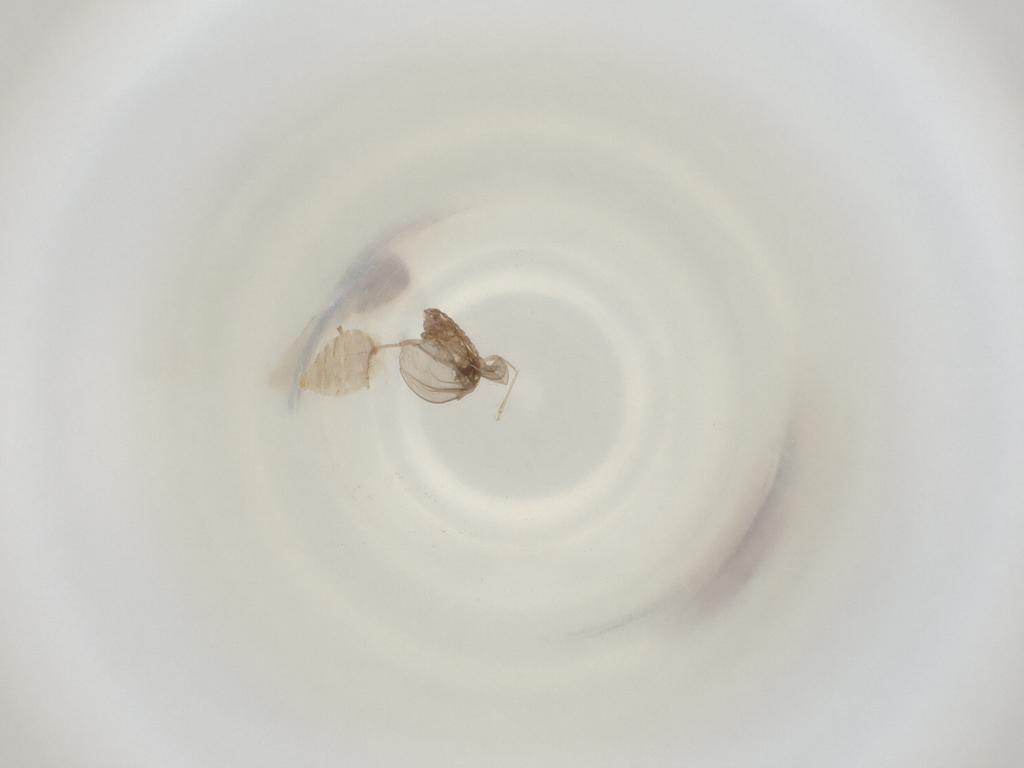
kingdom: Animalia
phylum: Arthropoda
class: Insecta
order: Diptera
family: Cecidomyiidae
